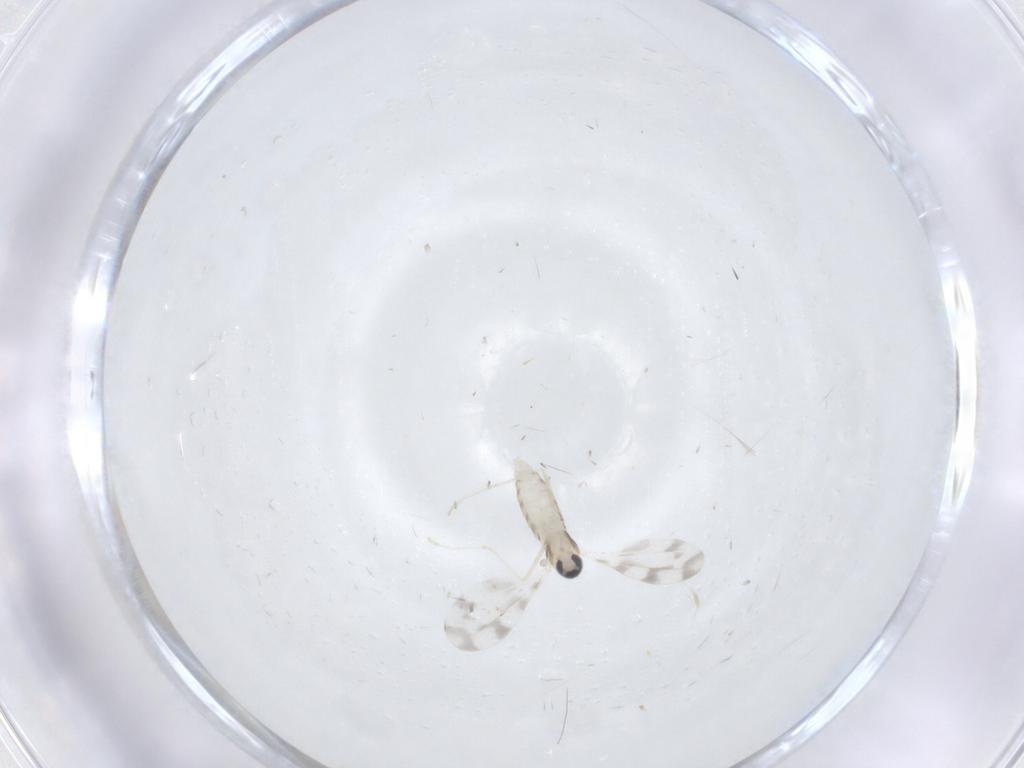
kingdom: Animalia
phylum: Arthropoda
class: Insecta
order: Diptera
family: Cecidomyiidae
